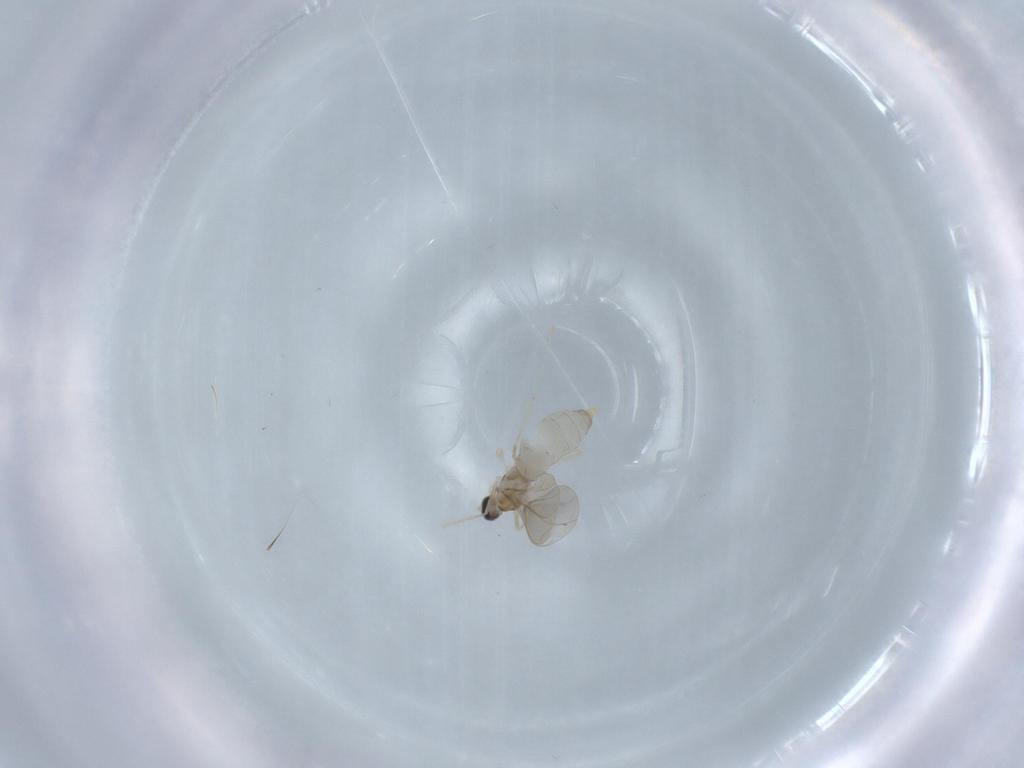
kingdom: Animalia
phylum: Arthropoda
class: Insecta
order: Diptera
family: Cecidomyiidae
